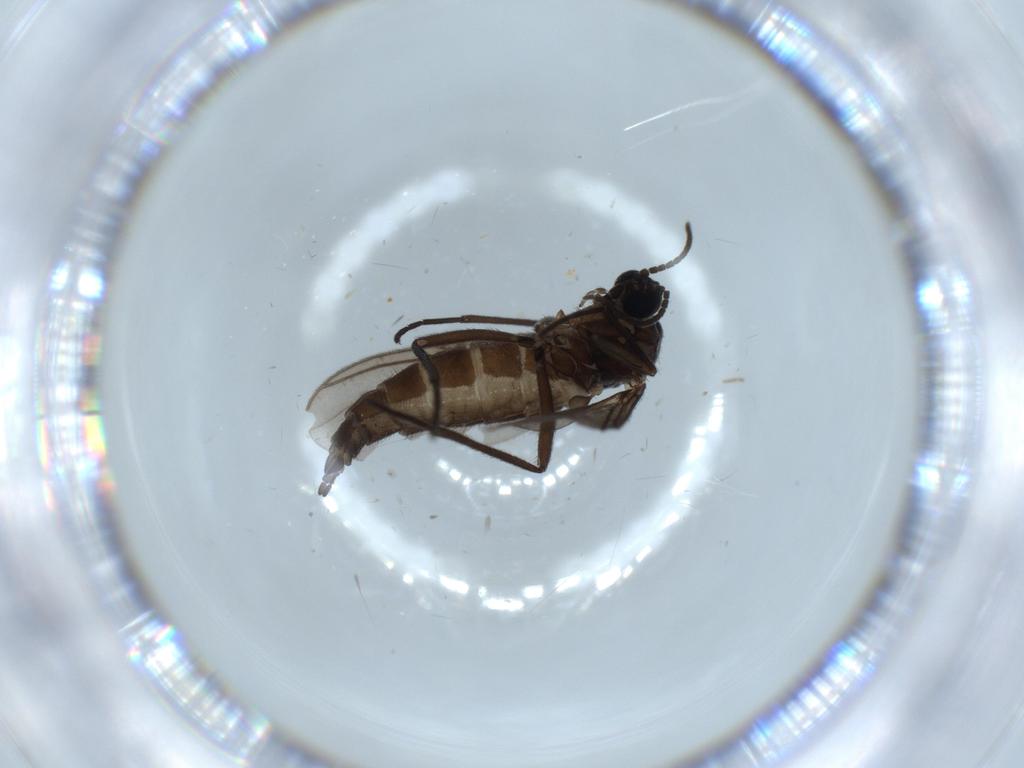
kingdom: Animalia
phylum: Arthropoda
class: Insecta
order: Diptera
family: Sciaridae
